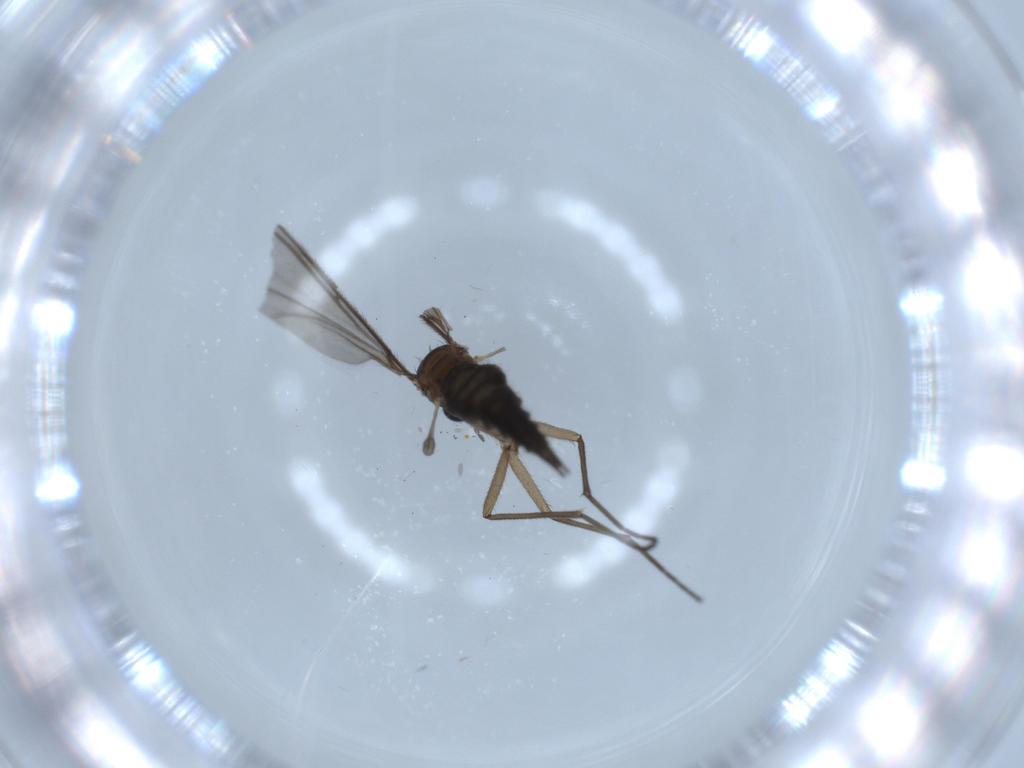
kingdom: Animalia
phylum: Arthropoda
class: Insecta
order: Diptera
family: Sciaridae
